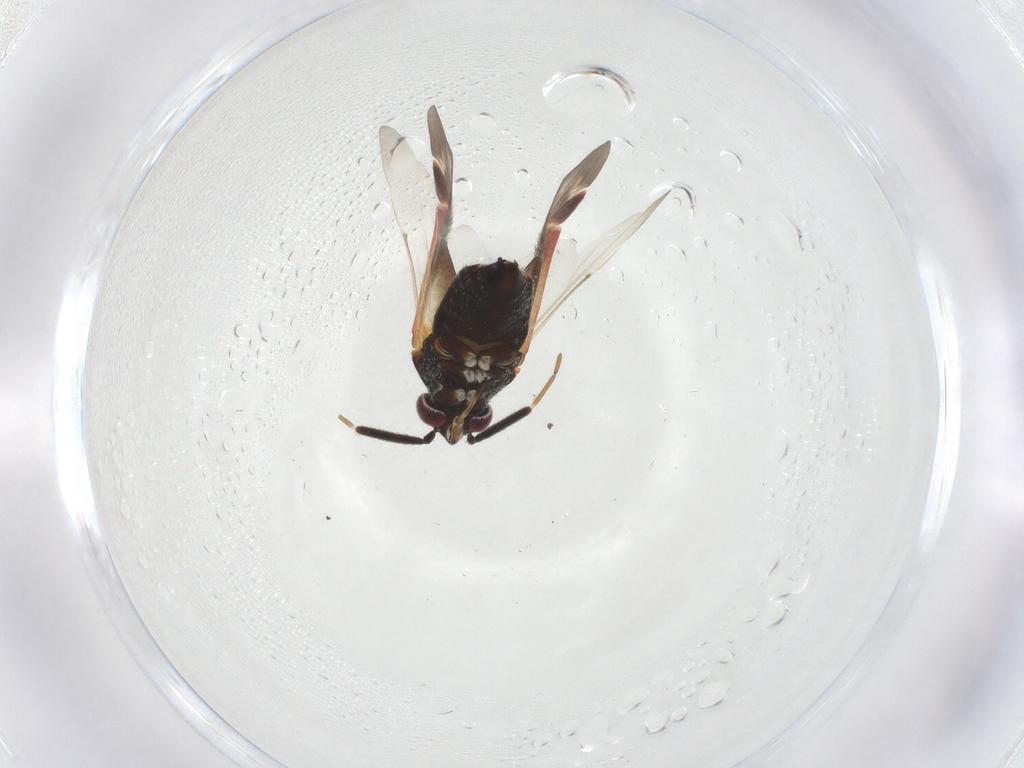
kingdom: Animalia
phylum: Arthropoda
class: Insecta
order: Hemiptera
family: Miridae
